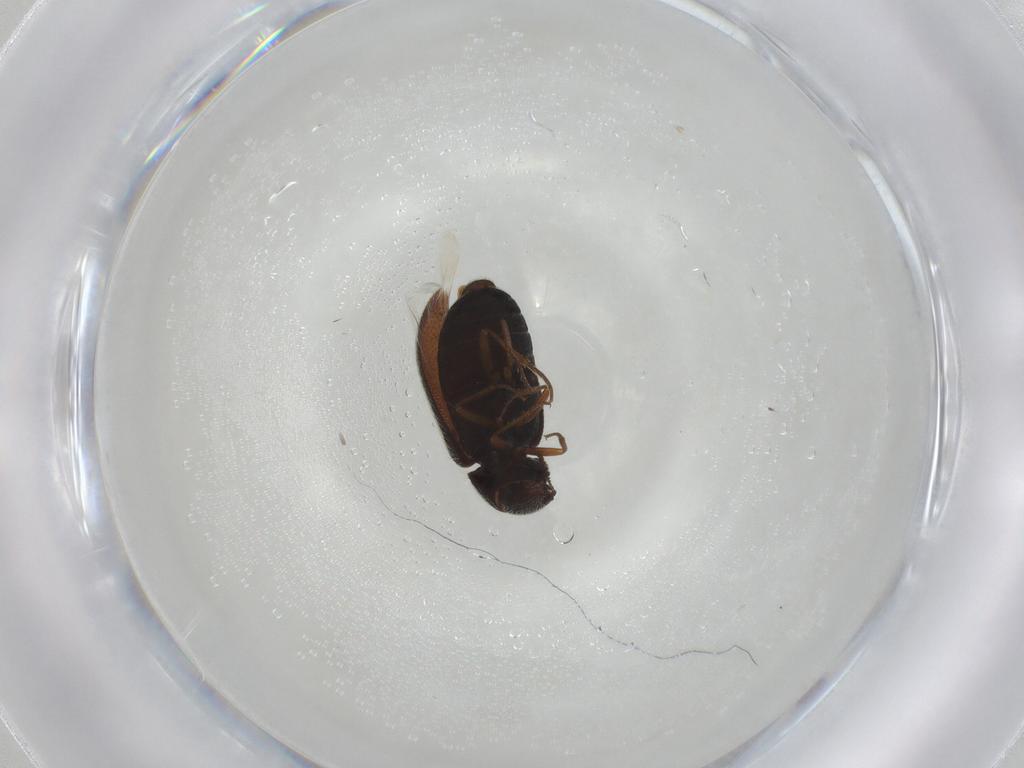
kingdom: Animalia
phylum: Arthropoda
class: Insecta
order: Coleoptera
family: Rhadalidae
